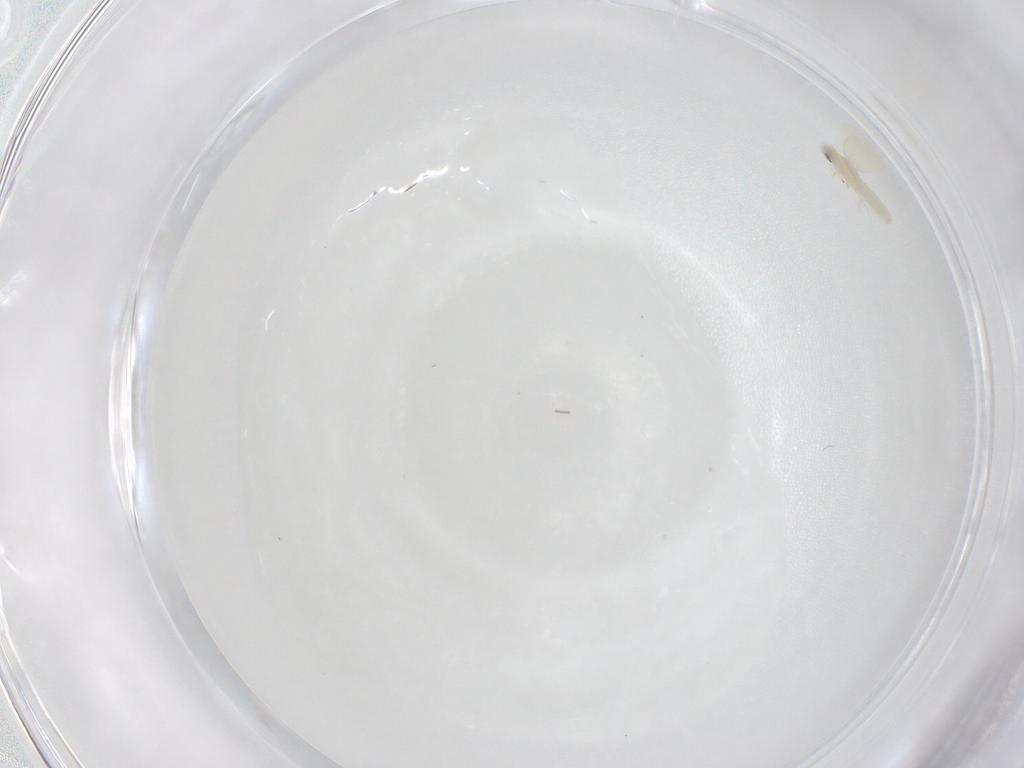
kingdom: Animalia
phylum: Arthropoda
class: Insecta
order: Hemiptera
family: Aleyrodidae
